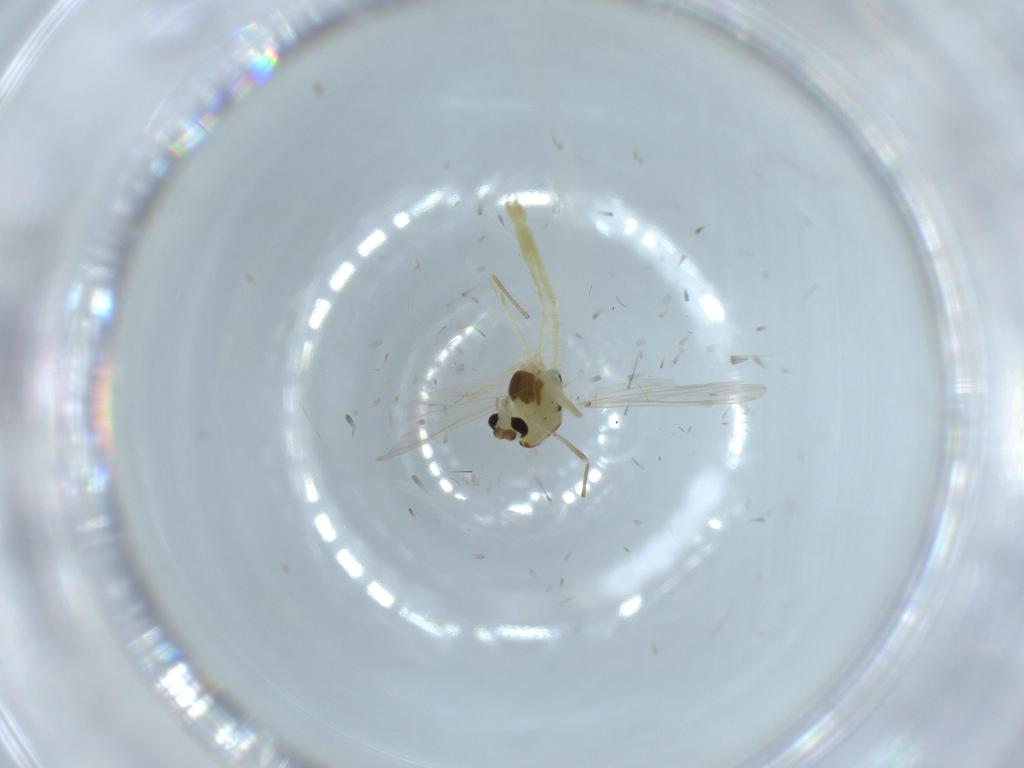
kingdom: Animalia
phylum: Arthropoda
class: Insecta
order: Diptera
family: Chironomidae
